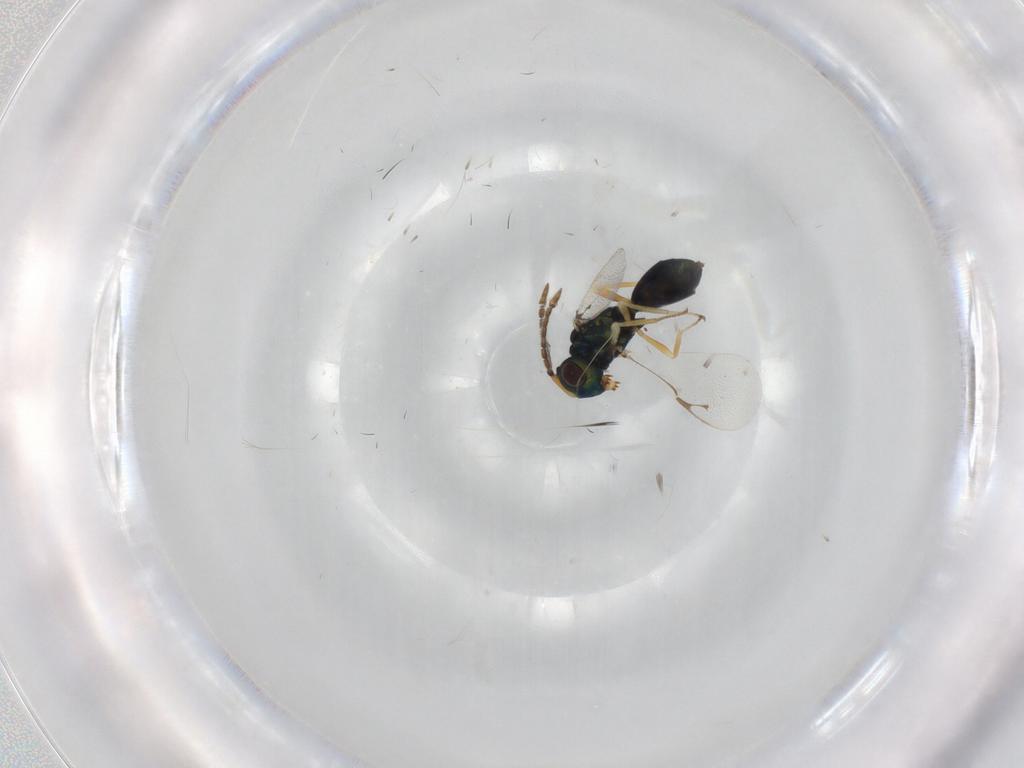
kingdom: Animalia
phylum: Arthropoda
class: Insecta
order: Hymenoptera
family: Pteromalidae
